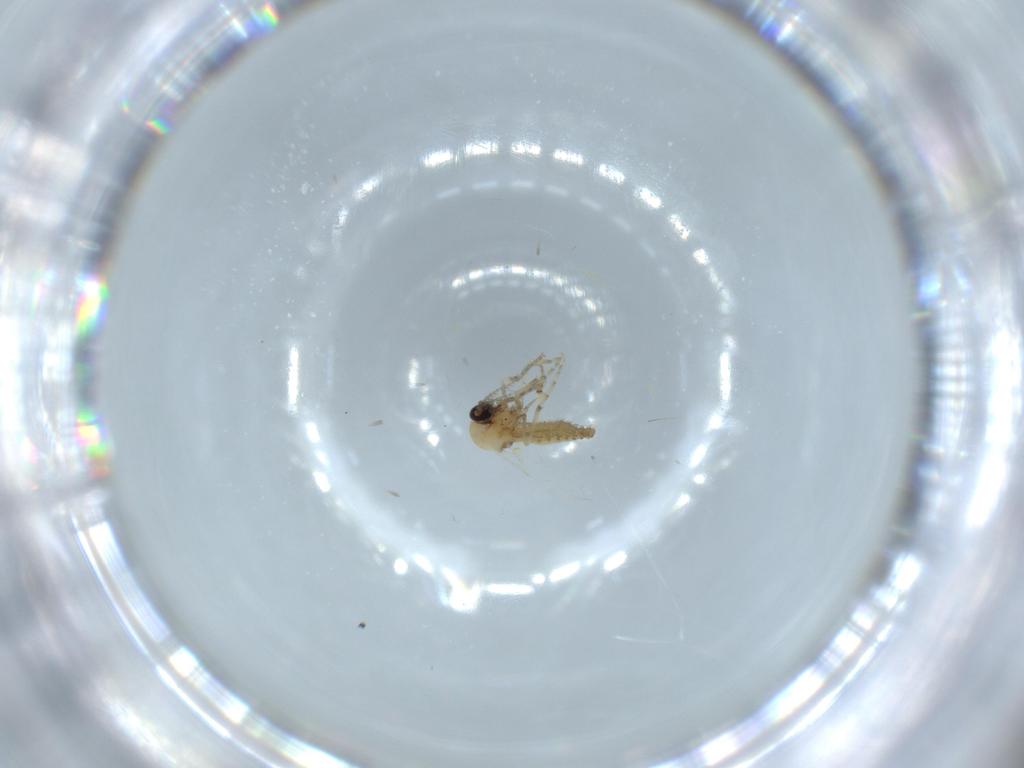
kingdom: Animalia
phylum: Arthropoda
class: Insecta
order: Diptera
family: Ceratopogonidae
